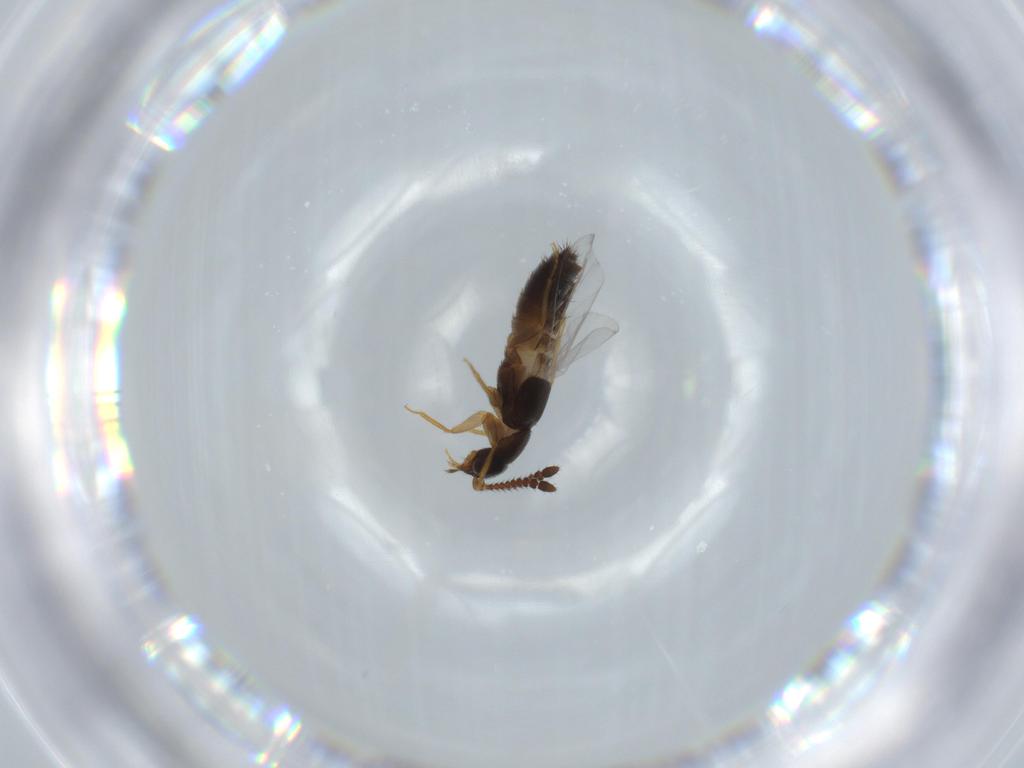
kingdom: Animalia
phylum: Arthropoda
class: Insecta
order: Coleoptera
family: Staphylinidae
